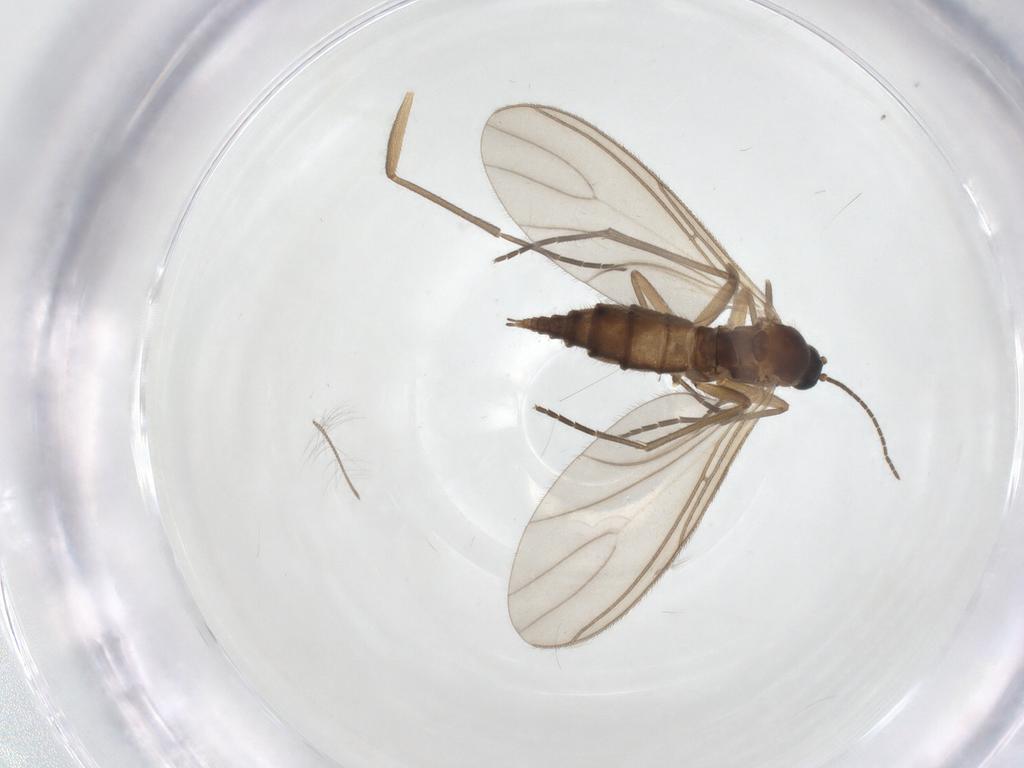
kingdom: Animalia
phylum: Arthropoda
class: Insecta
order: Diptera
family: Sciaridae
